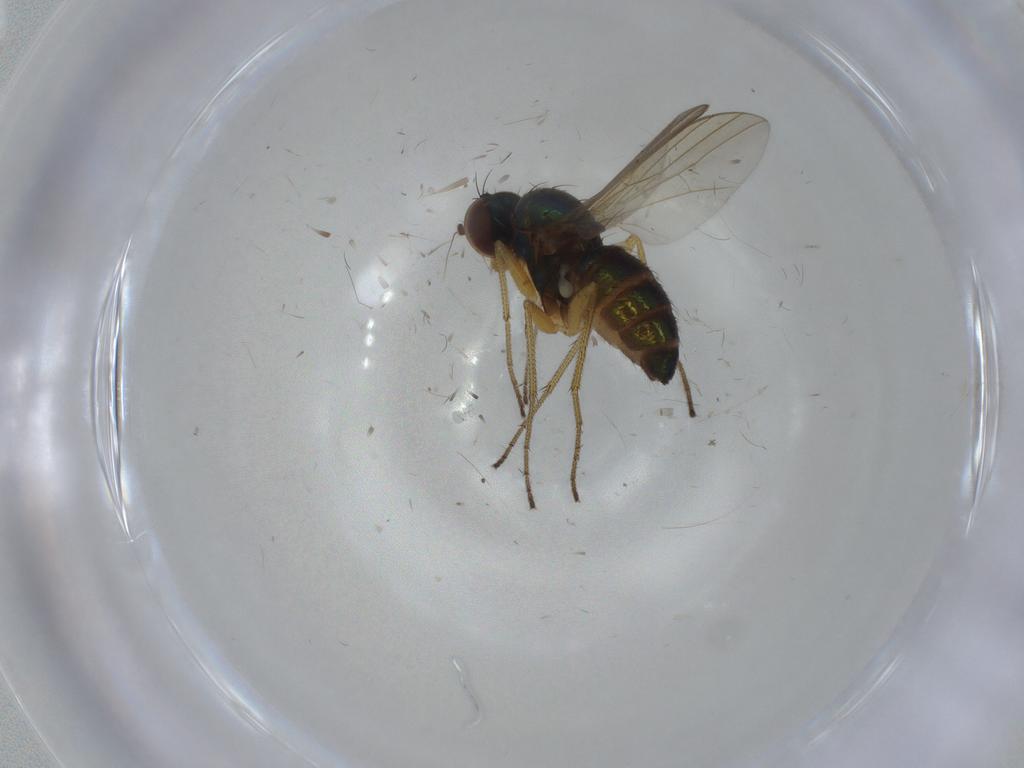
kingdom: Animalia
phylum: Arthropoda
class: Insecta
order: Diptera
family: Dolichopodidae
